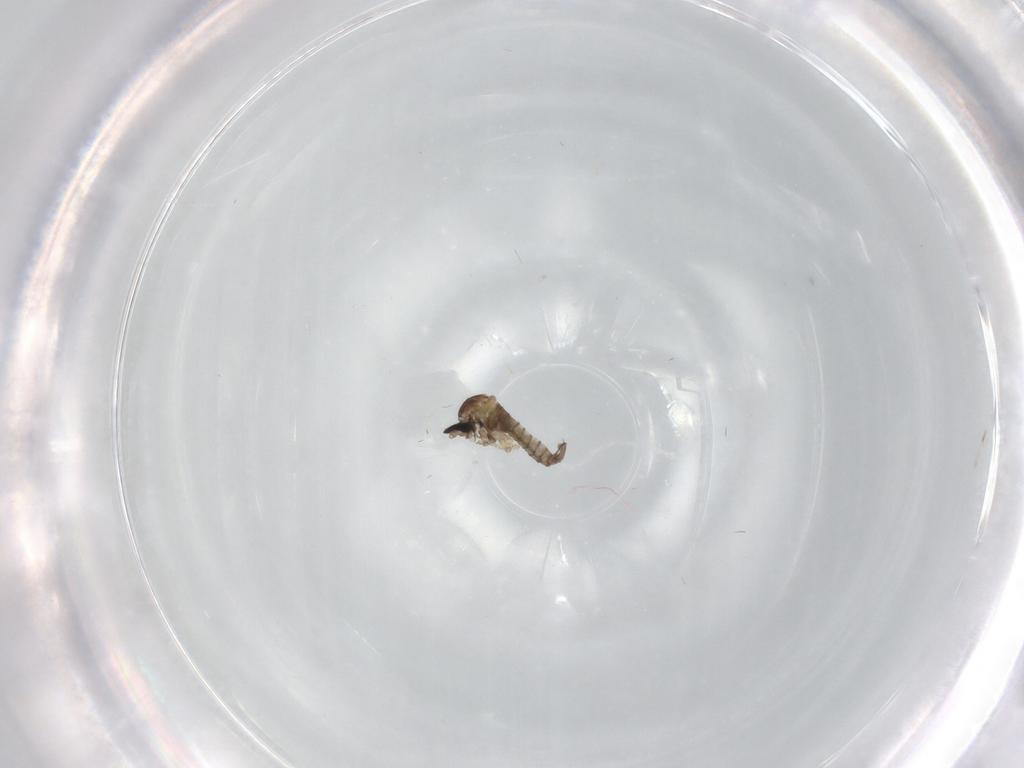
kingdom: Animalia
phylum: Arthropoda
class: Insecta
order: Diptera
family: Cecidomyiidae
